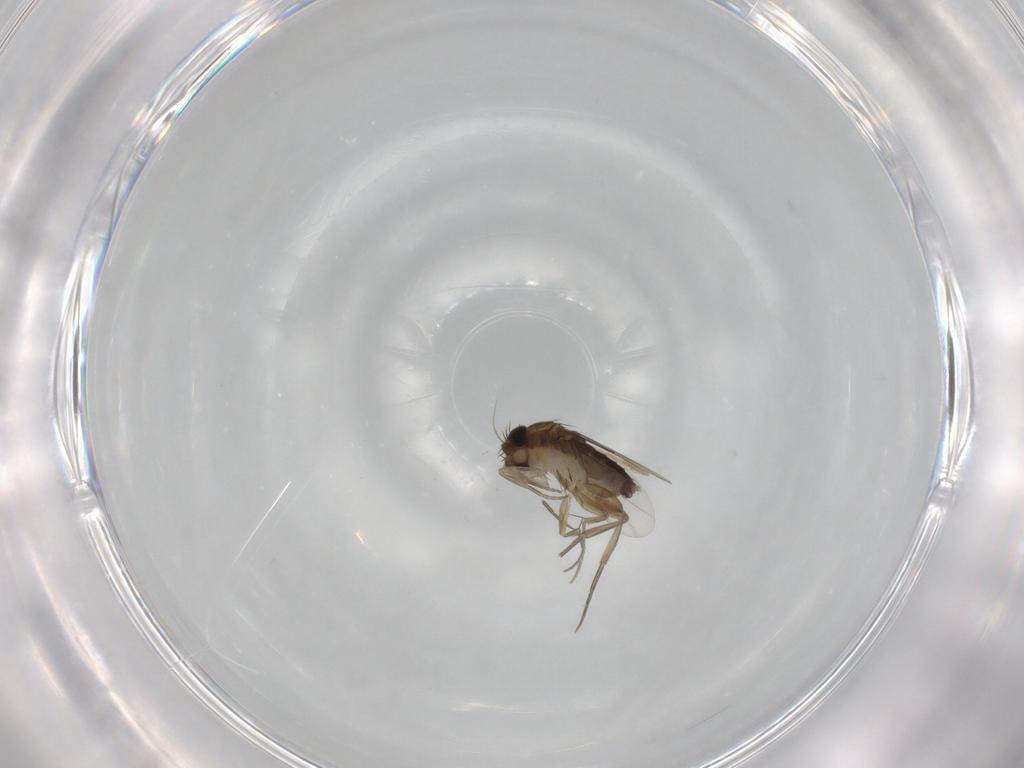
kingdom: Animalia
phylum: Arthropoda
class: Insecta
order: Diptera
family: Phoridae
